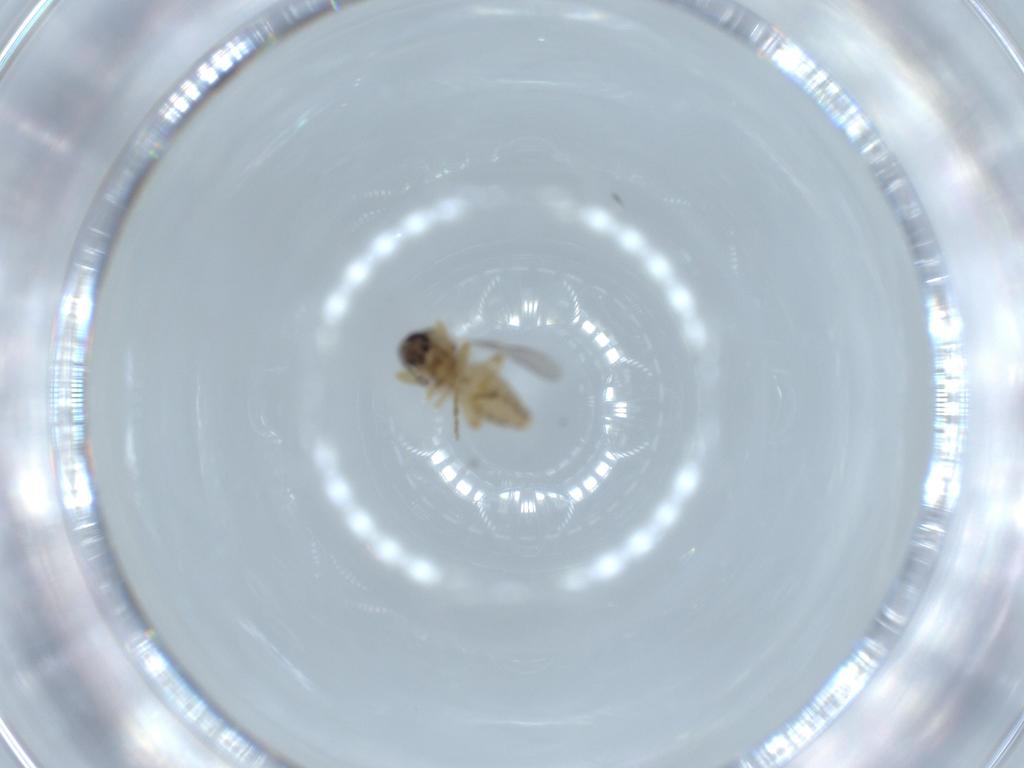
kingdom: Animalia
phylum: Arthropoda
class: Insecta
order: Diptera
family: Ceratopogonidae
